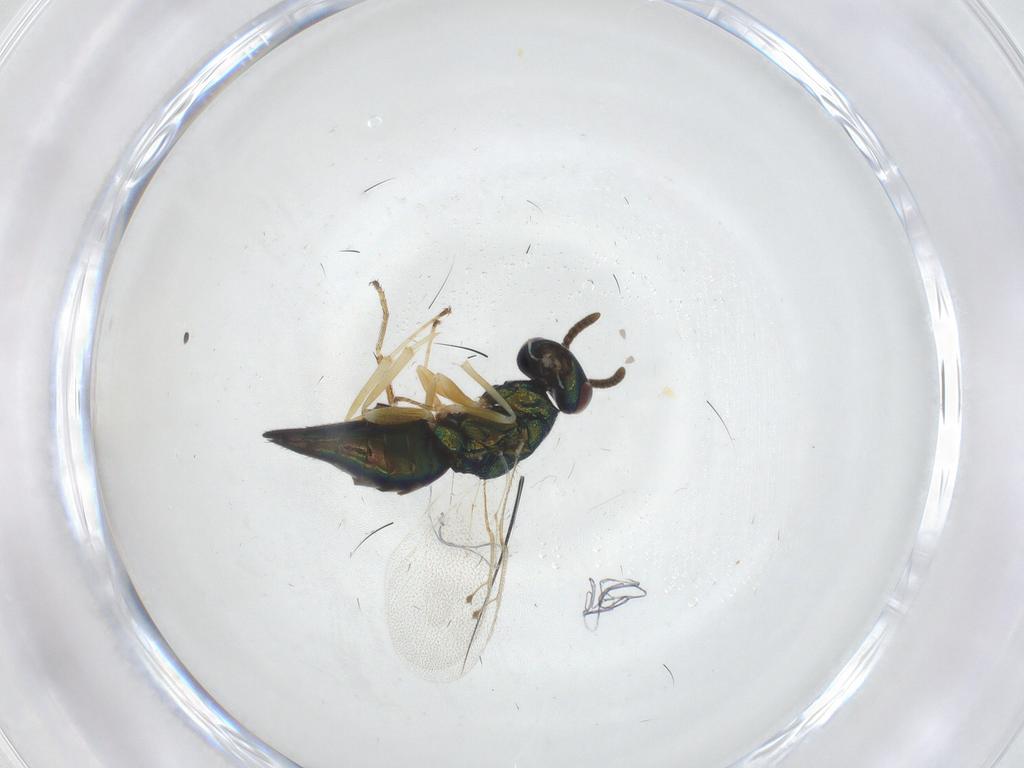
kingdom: Animalia
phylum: Arthropoda
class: Insecta
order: Hymenoptera
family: Pteromalidae
